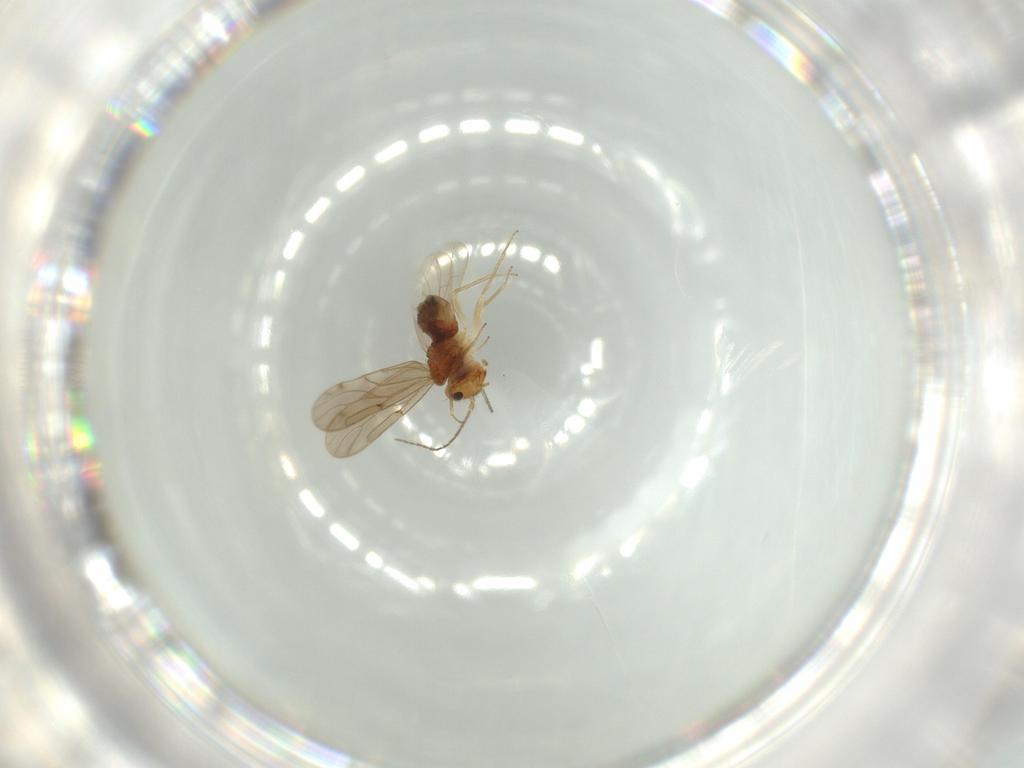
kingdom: Animalia
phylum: Arthropoda
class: Insecta
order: Psocodea
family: Ectopsocidae
